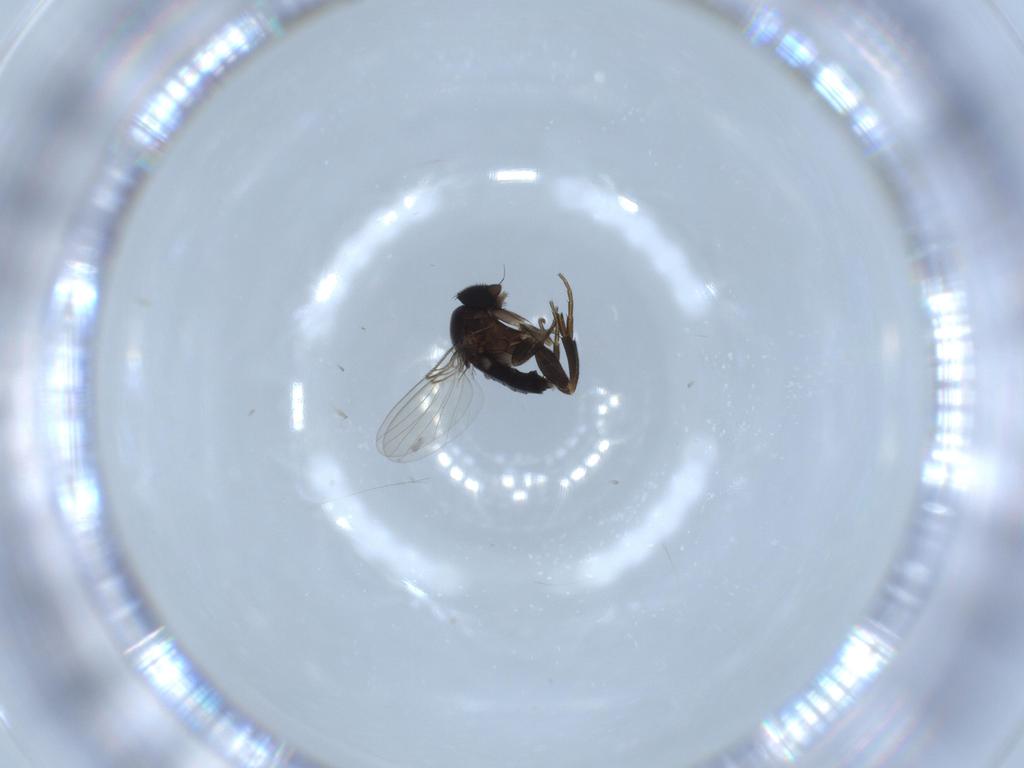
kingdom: Animalia
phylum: Arthropoda
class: Insecta
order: Diptera
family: Phoridae
